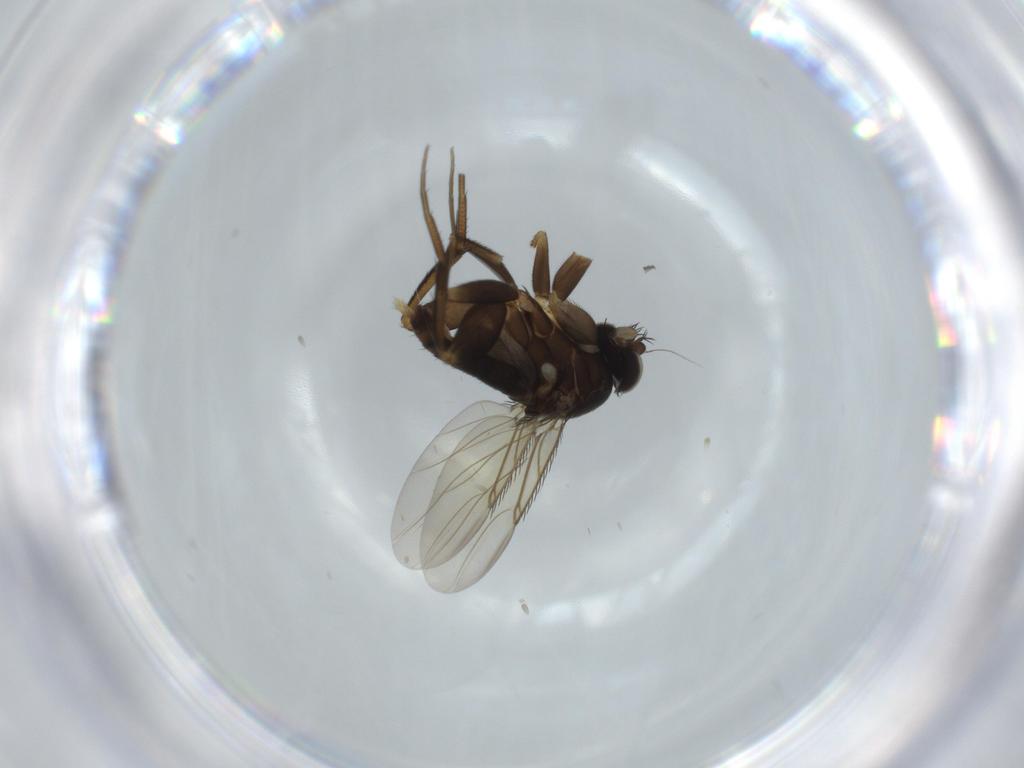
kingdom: Animalia
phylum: Arthropoda
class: Insecta
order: Diptera
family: Phoridae
